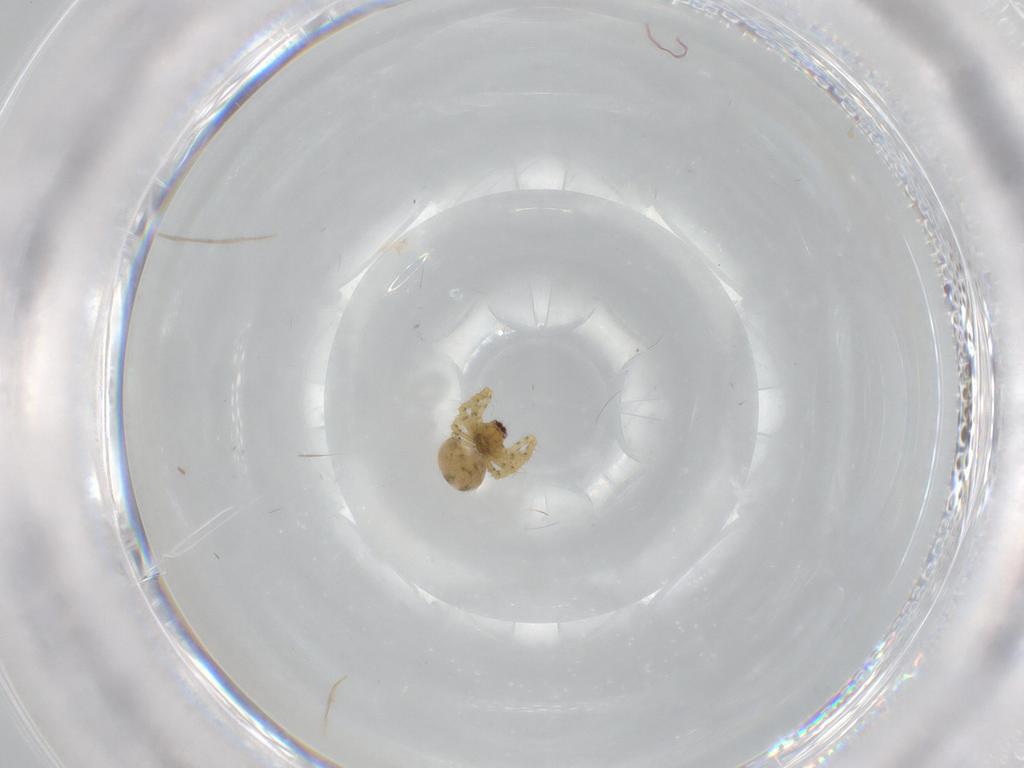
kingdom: Animalia
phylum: Arthropoda
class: Arachnida
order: Araneae
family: Theridiidae
